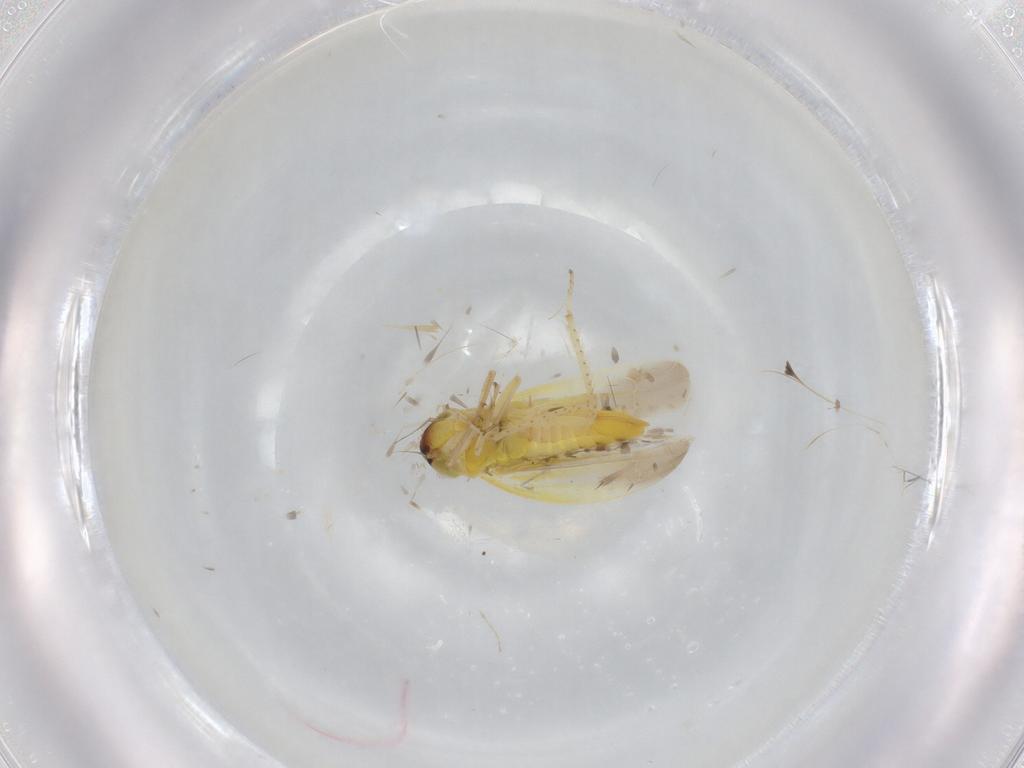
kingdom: Animalia
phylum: Arthropoda
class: Insecta
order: Hemiptera
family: Cicadellidae
